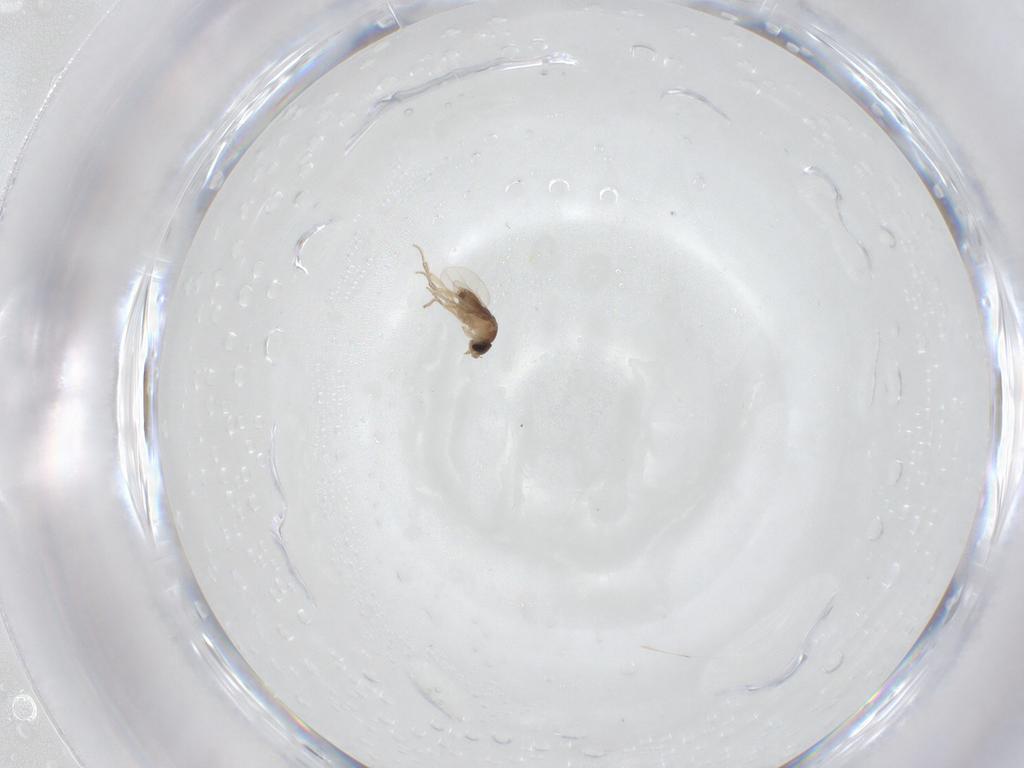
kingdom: Animalia
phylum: Arthropoda
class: Insecta
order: Diptera
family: Phoridae
